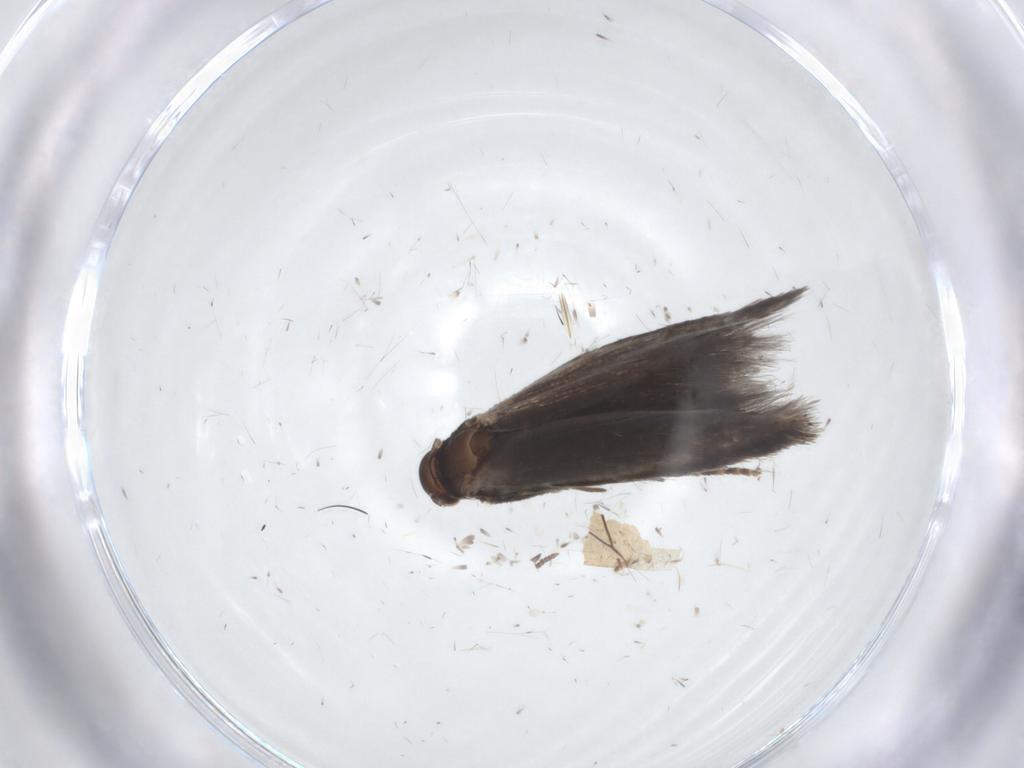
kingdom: Animalia
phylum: Arthropoda
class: Insecta
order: Lepidoptera
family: Elachistidae
